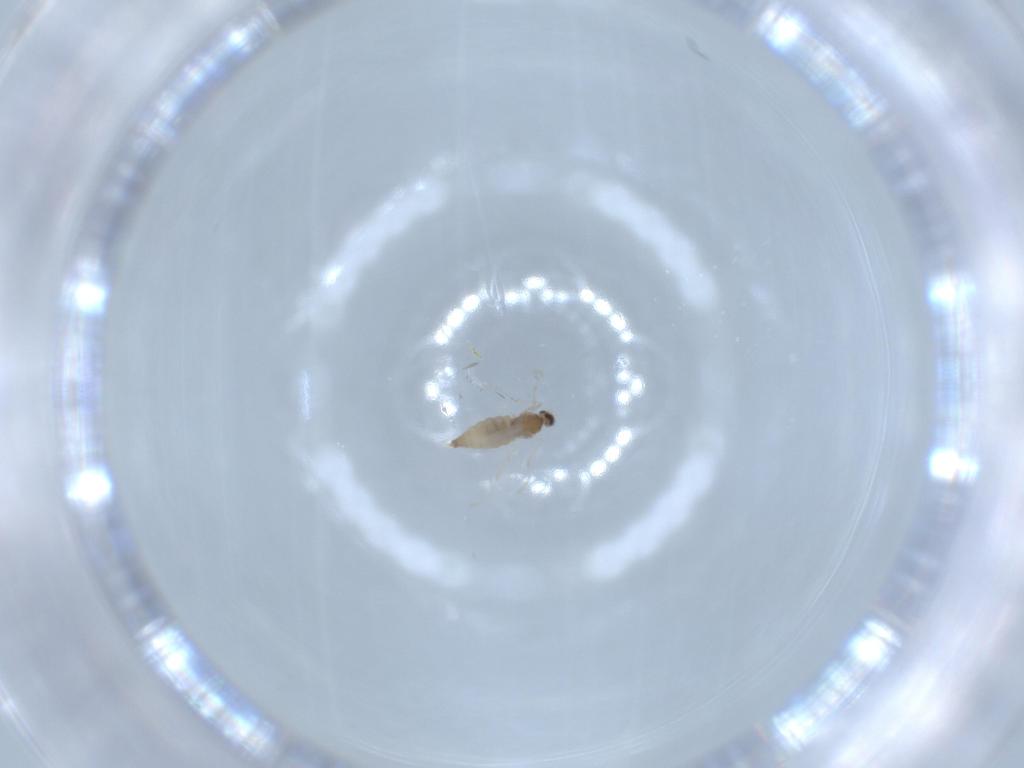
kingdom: Animalia
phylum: Arthropoda
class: Insecta
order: Diptera
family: Cecidomyiidae
